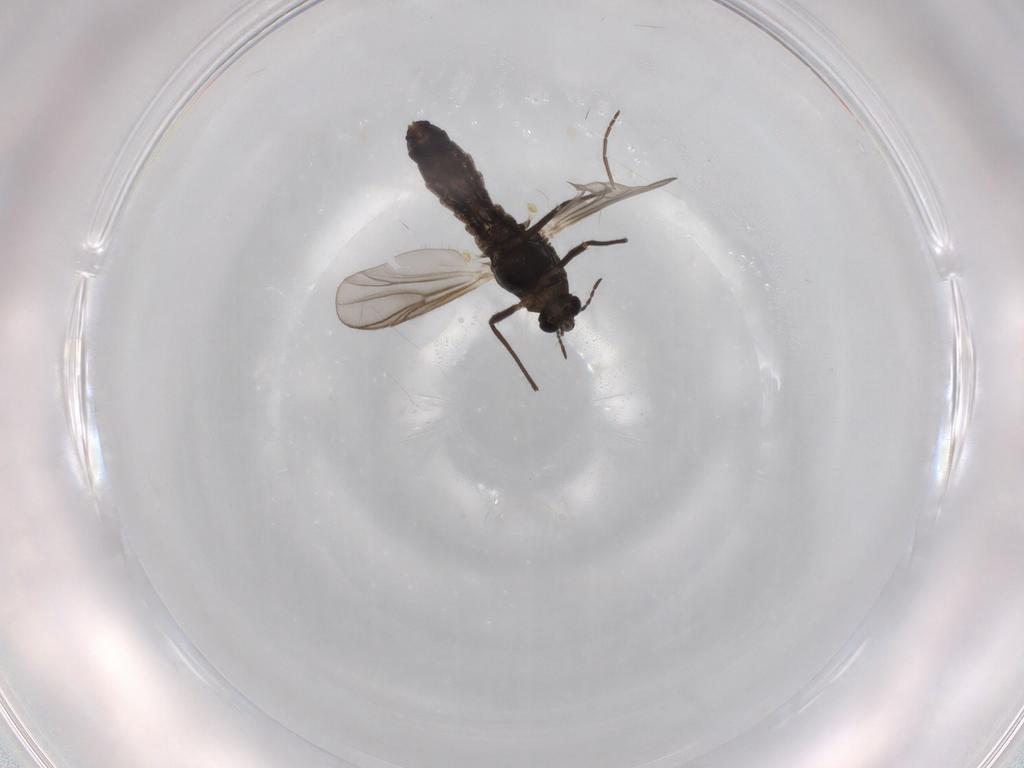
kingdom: Animalia
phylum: Arthropoda
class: Insecta
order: Diptera
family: Chironomidae
